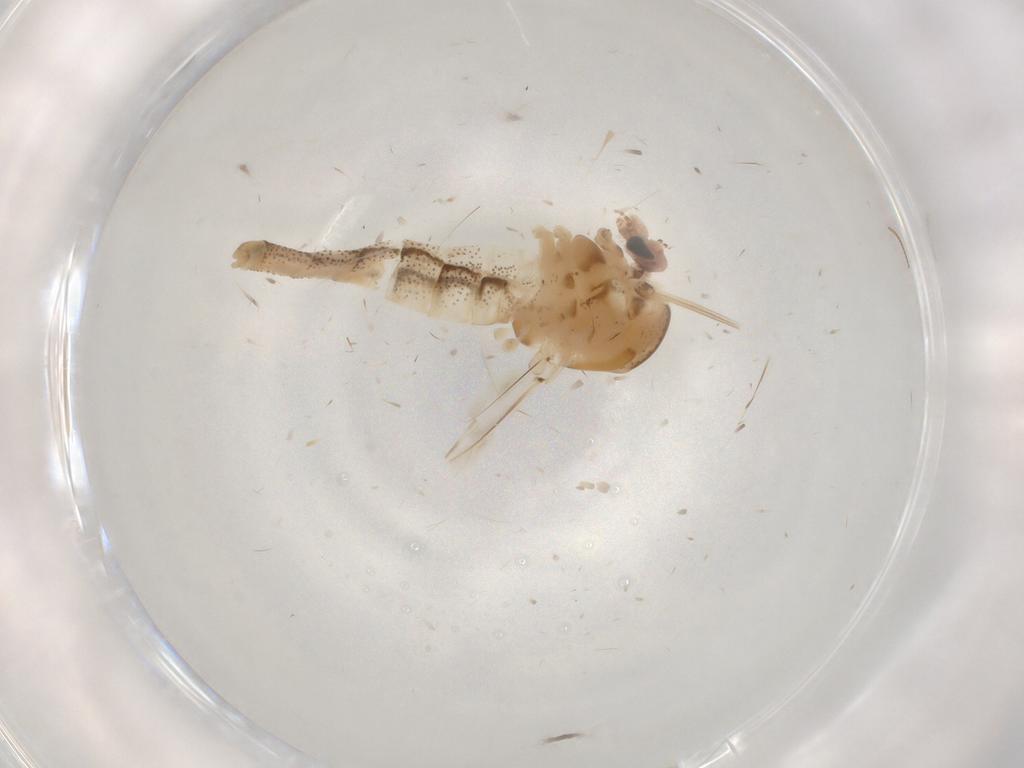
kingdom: Animalia
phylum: Arthropoda
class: Insecta
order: Diptera
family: Chaoboridae
